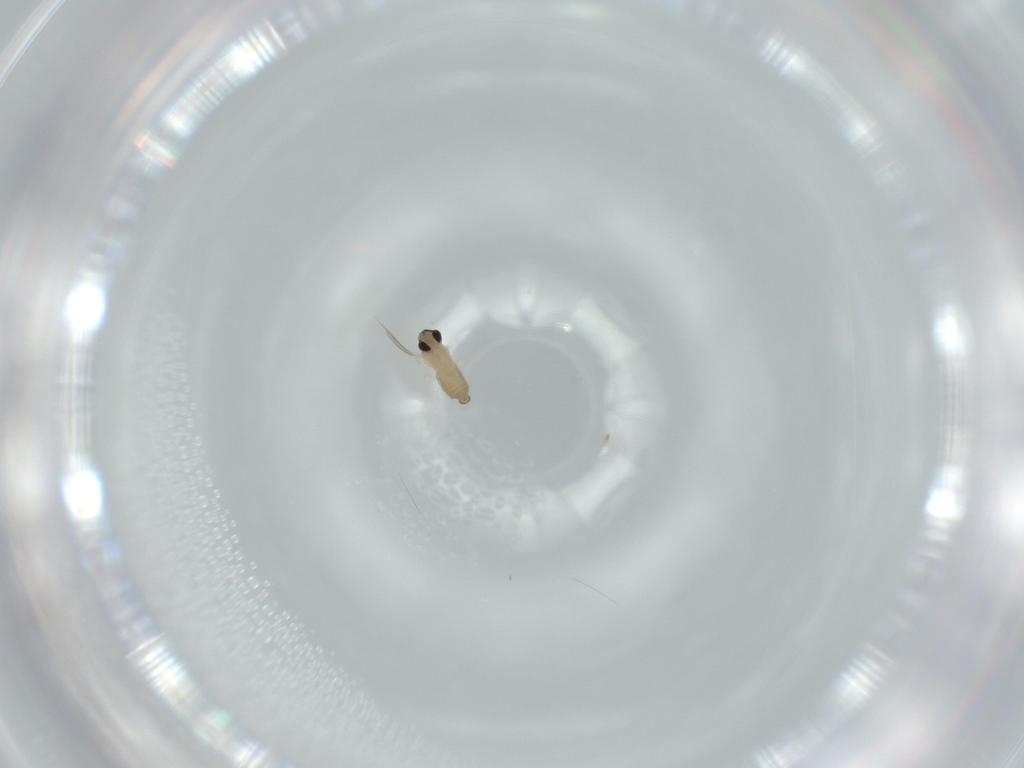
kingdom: Animalia
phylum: Arthropoda
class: Insecta
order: Diptera
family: Cecidomyiidae
